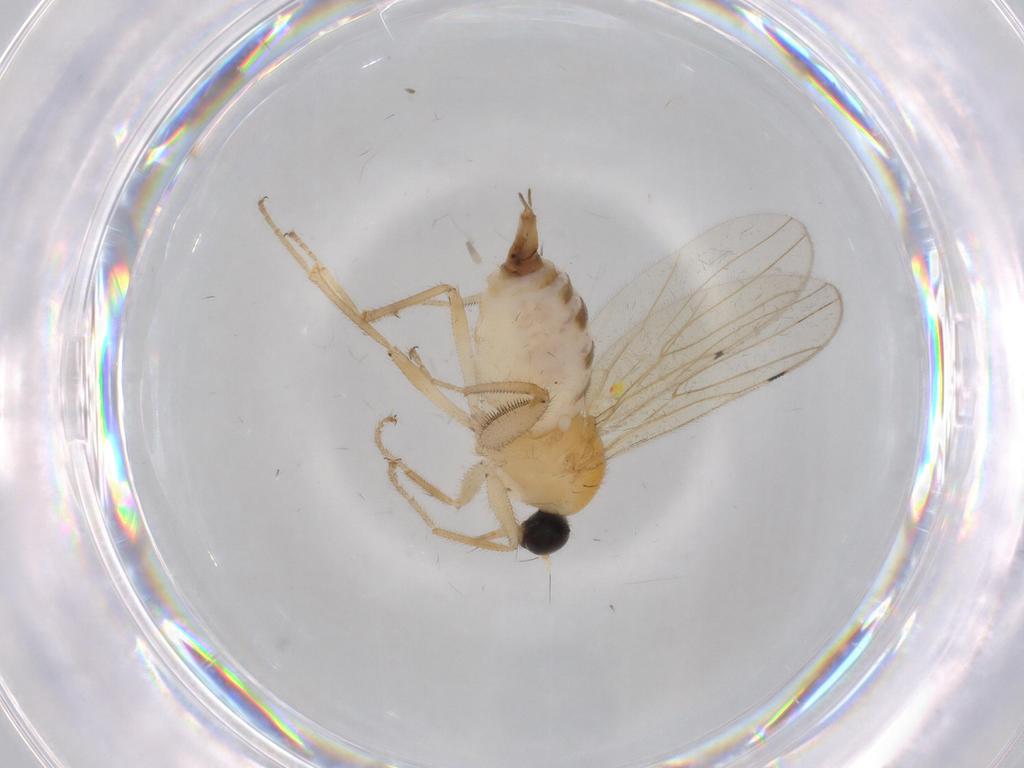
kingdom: Animalia
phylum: Arthropoda
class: Insecta
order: Diptera
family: Hybotidae
